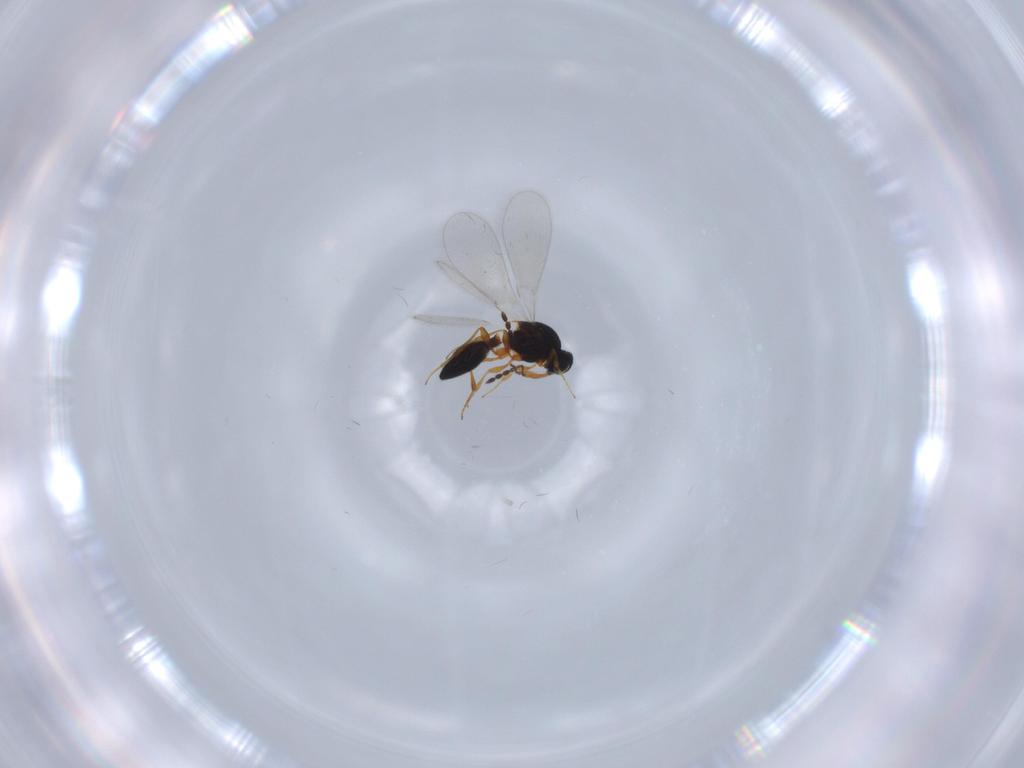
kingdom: Animalia
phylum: Arthropoda
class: Insecta
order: Hymenoptera
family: Platygastridae
